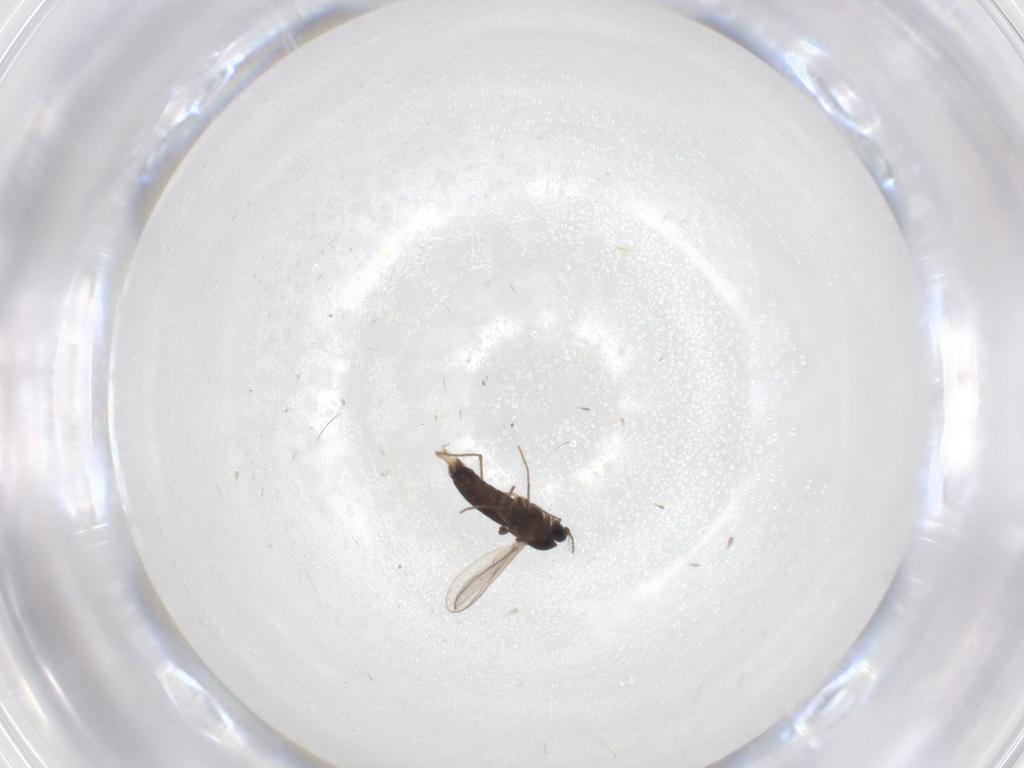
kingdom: Animalia
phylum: Arthropoda
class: Insecta
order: Diptera
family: Chironomidae
